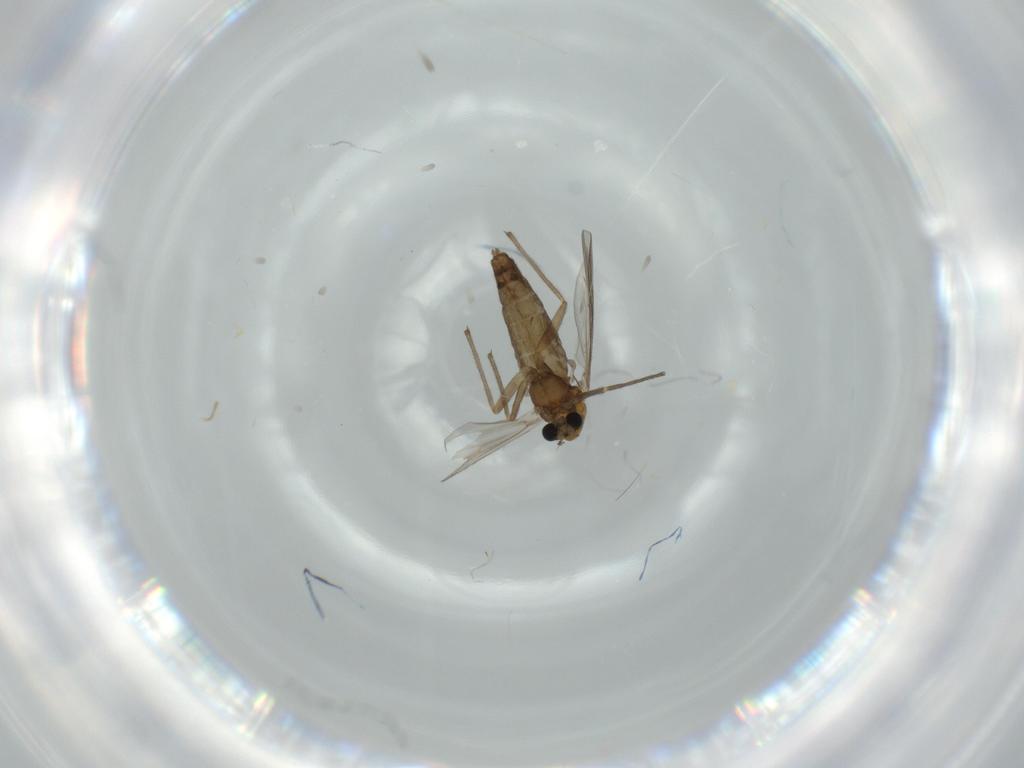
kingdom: Animalia
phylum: Arthropoda
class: Insecta
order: Diptera
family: Chironomidae
